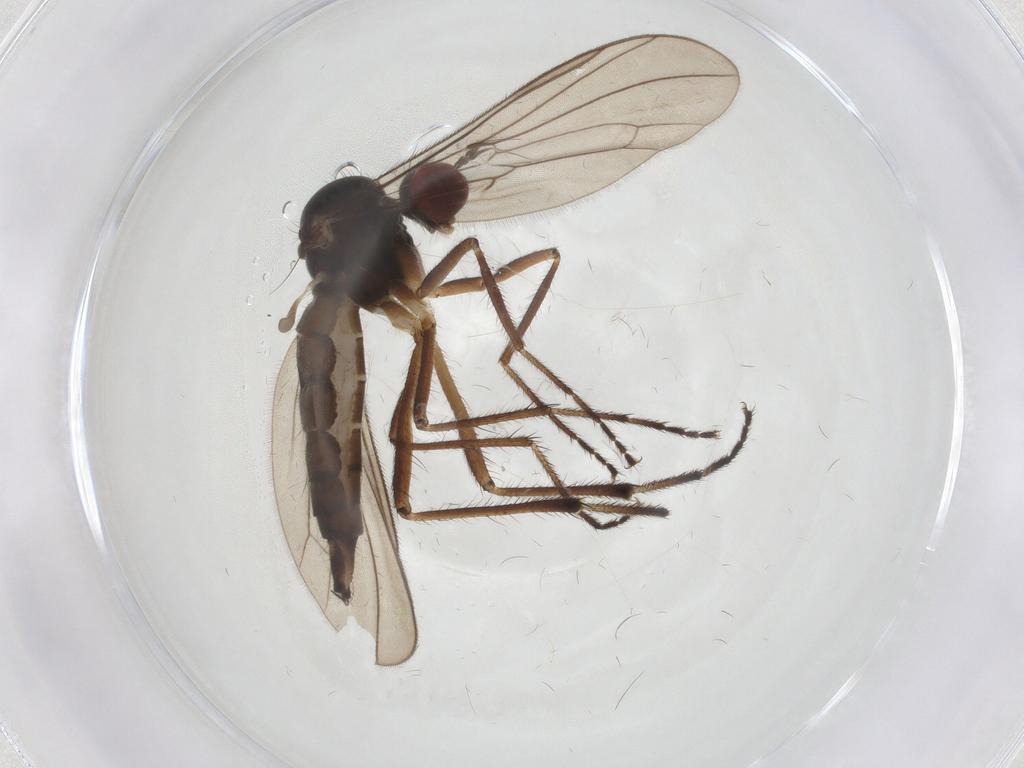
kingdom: Animalia
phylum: Arthropoda
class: Insecta
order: Diptera
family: Hybotidae
